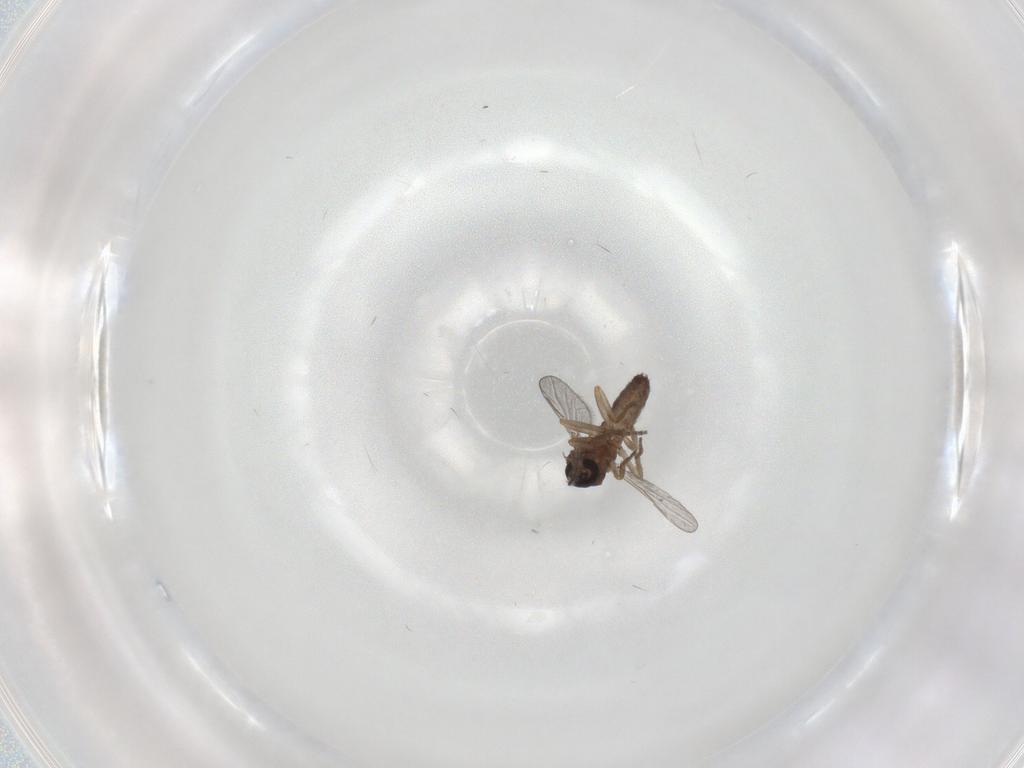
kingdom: Animalia
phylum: Arthropoda
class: Insecta
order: Diptera
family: Ceratopogonidae
